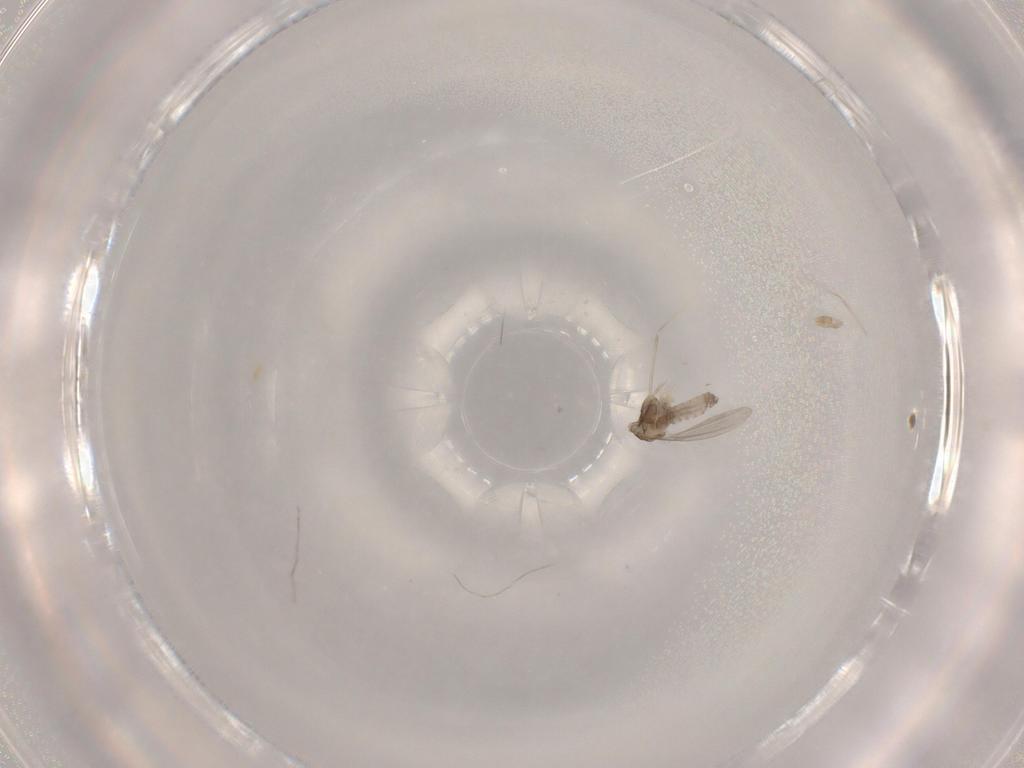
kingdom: Animalia
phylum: Arthropoda
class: Insecta
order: Diptera
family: Cecidomyiidae
